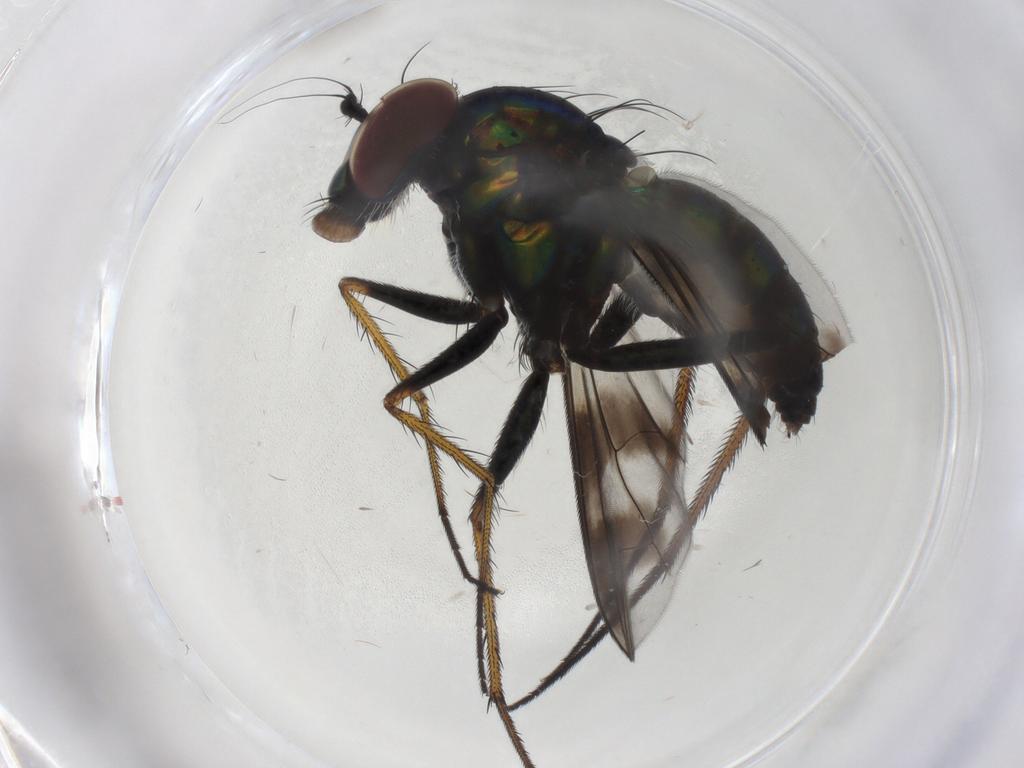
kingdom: Animalia
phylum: Arthropoda
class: Insecta
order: Diptera
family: Dolichopodidae
